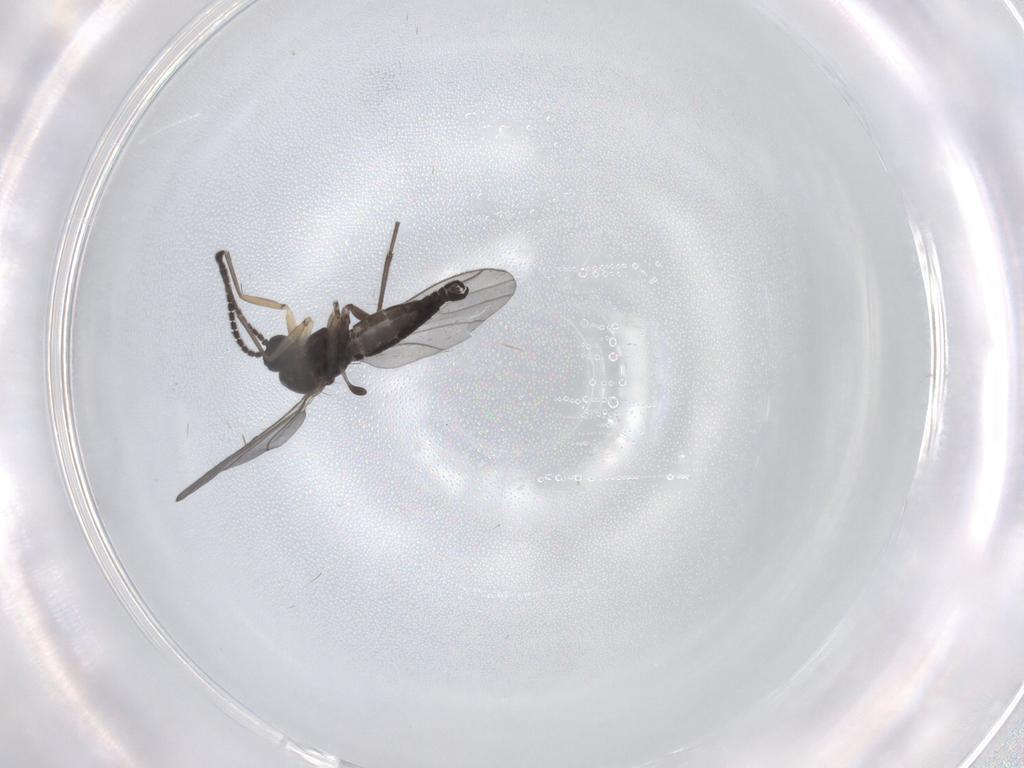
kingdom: Animalia
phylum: Arthropoda
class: Insecta
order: Diptera
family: Sciaridae
